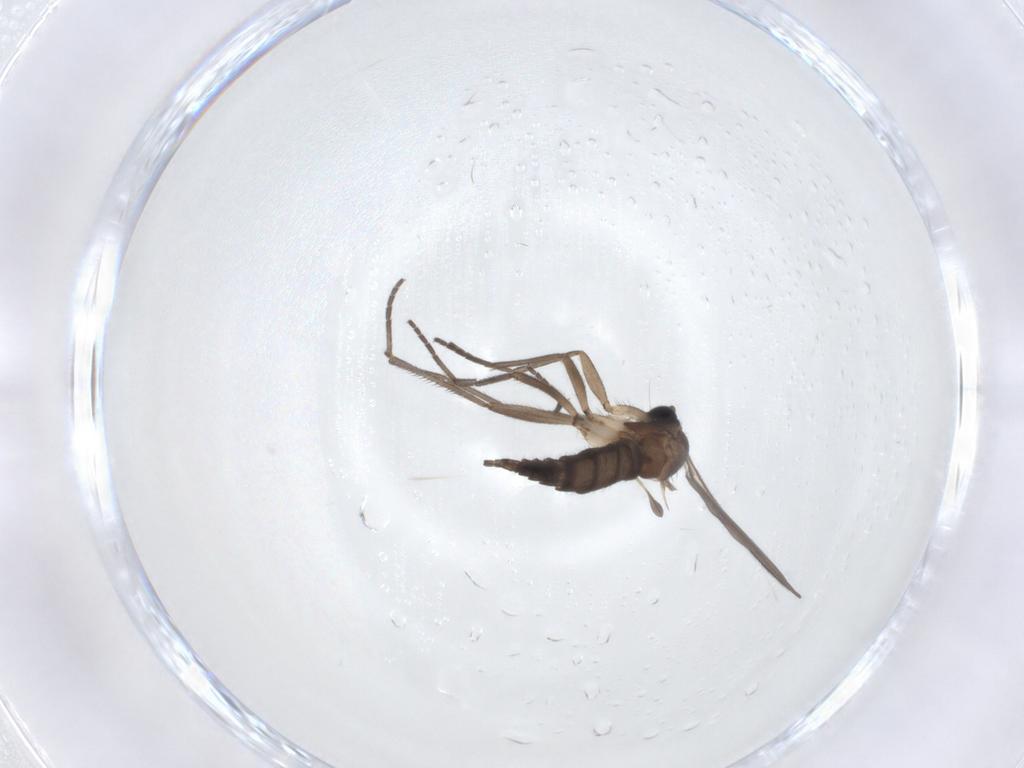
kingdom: Animalia
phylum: Arthropoda
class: Insecta
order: Diptera
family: Sciaridae
